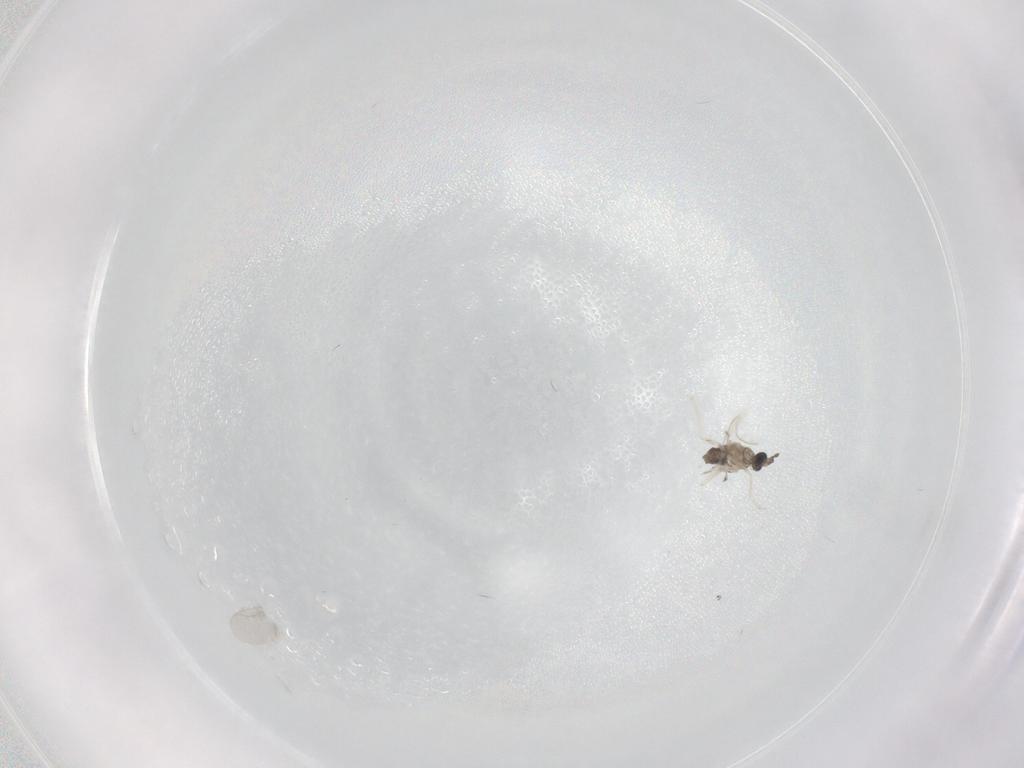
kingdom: Animalia
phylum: Arthropoda
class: Insecta
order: Diptera
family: Cecidomyiidae
